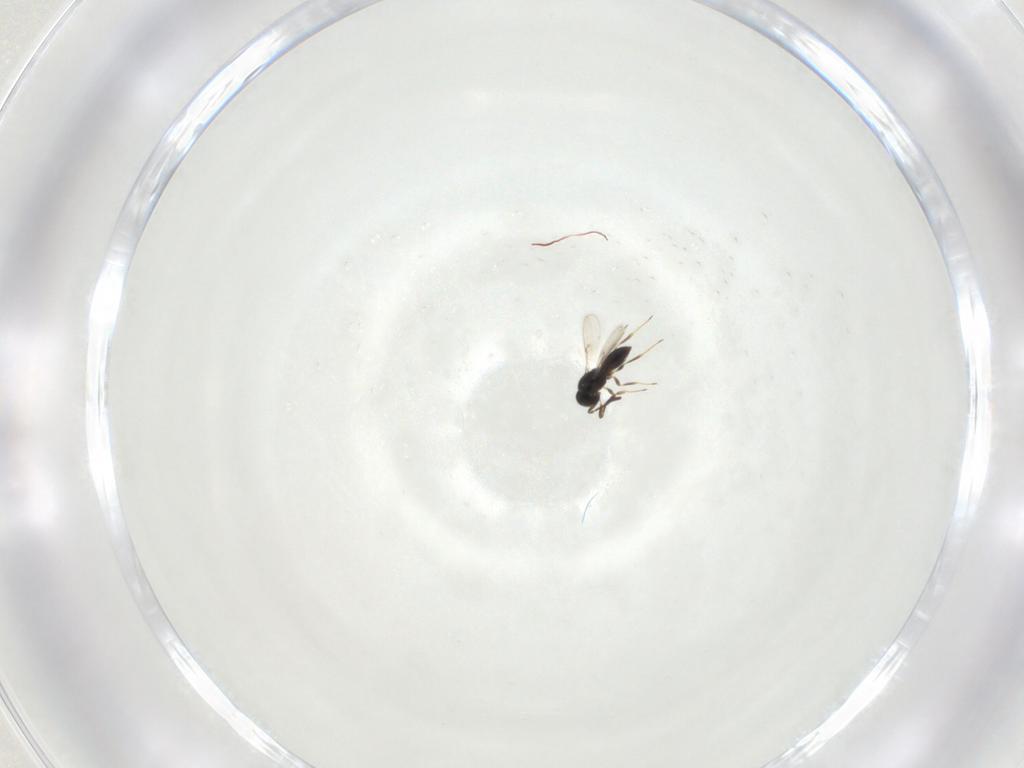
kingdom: Animalia
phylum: Arthropoda
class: Insecta
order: Hymenoptera
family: Scelionidae
